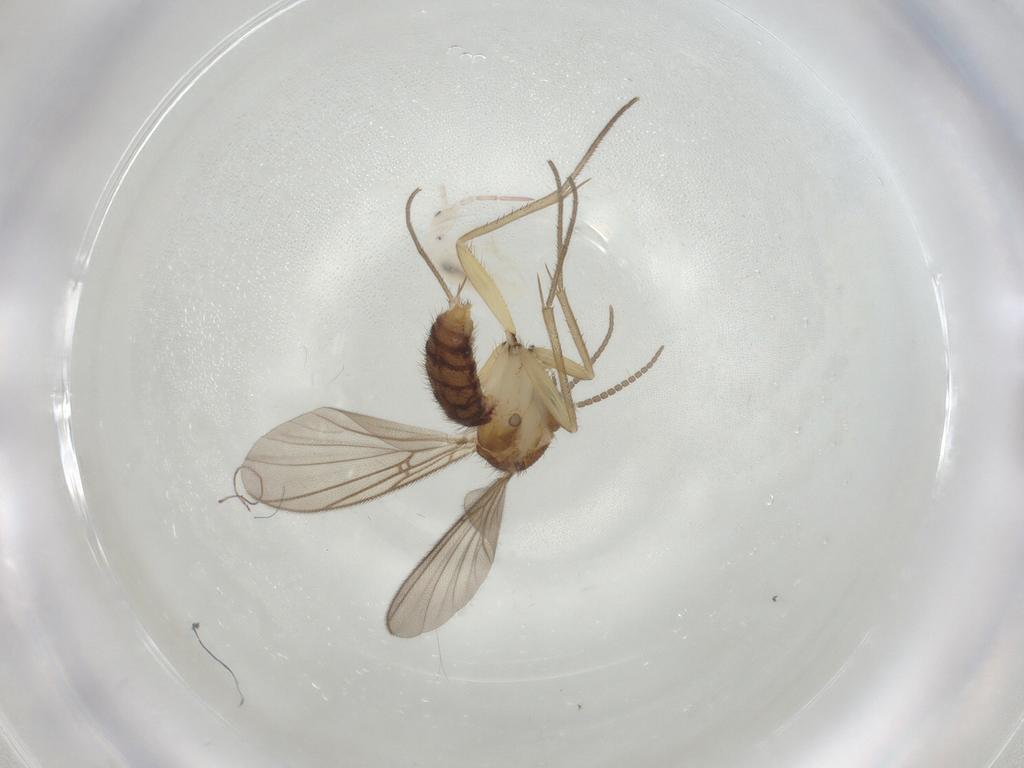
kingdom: Animalia
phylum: Arthropoda
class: Insecta
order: Diptera
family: Mycetophilidae
